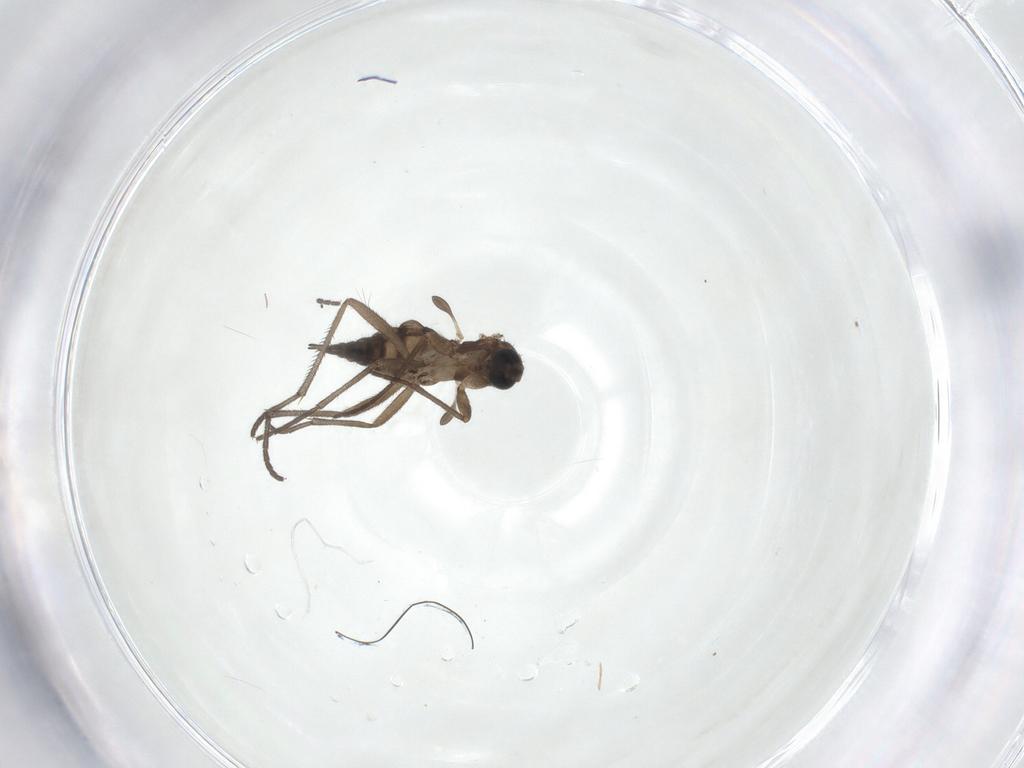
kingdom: Animalia
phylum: Arthropoda
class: Insecta
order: Diptera
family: Sciaridae
